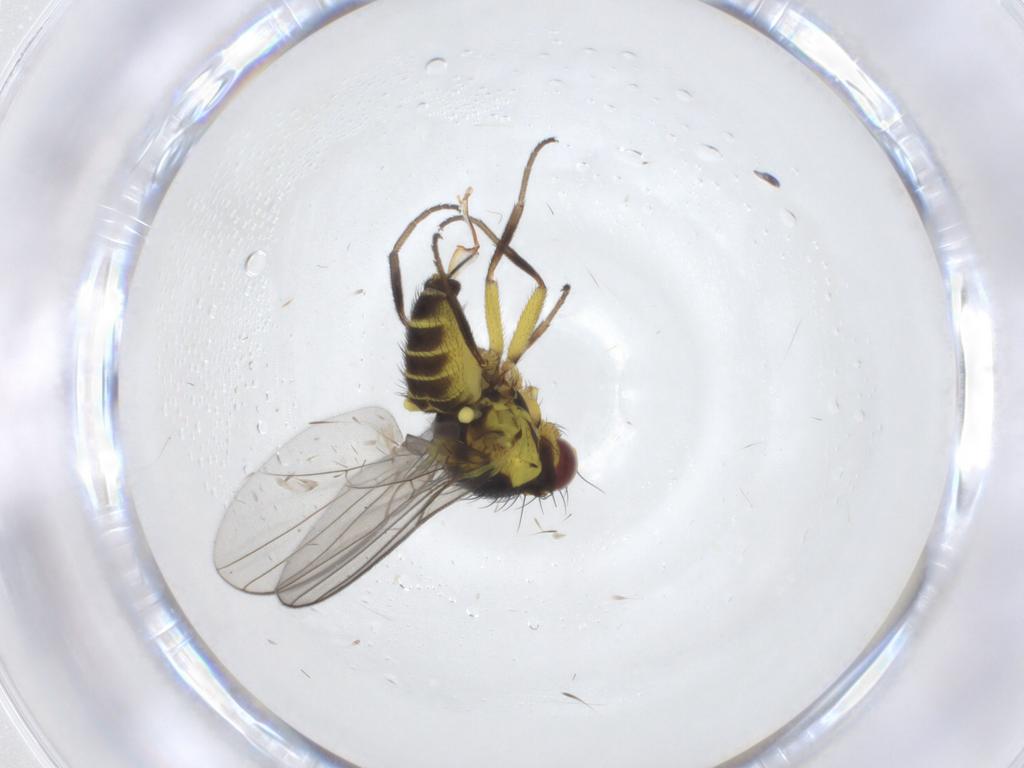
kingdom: Animalia
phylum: Arthropoda
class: Insecta
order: Diptera
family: Agromyzidae
